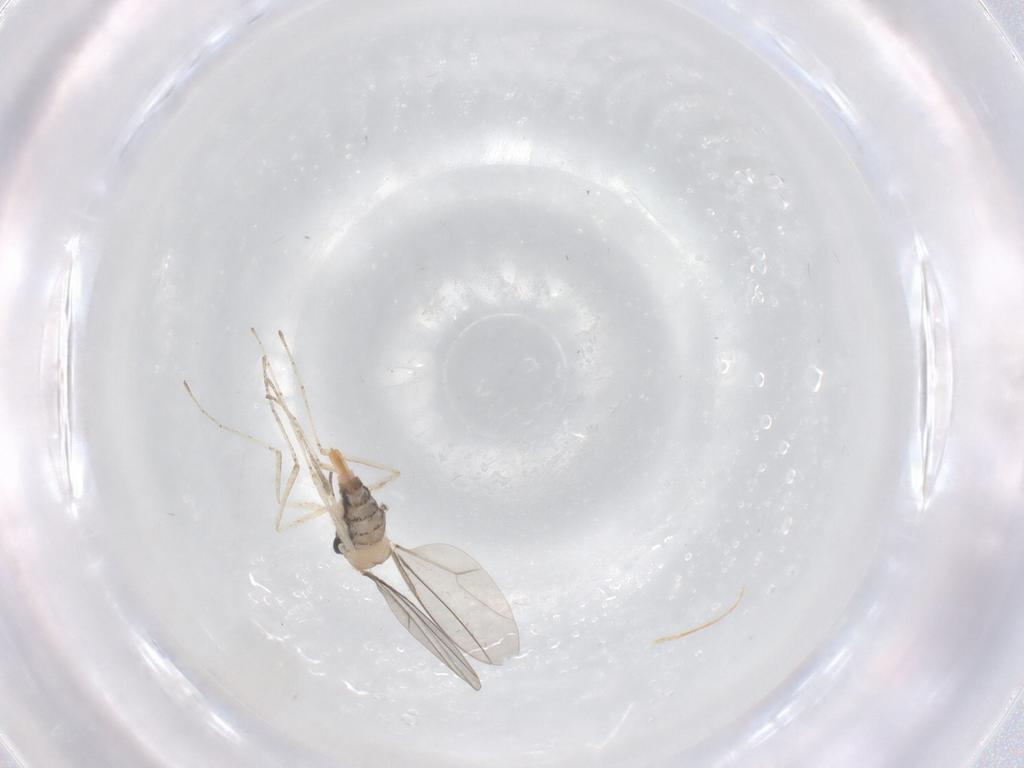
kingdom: Animalia
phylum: Arthropoda
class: Insecta
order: Diptera
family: Cecidomyiidae
